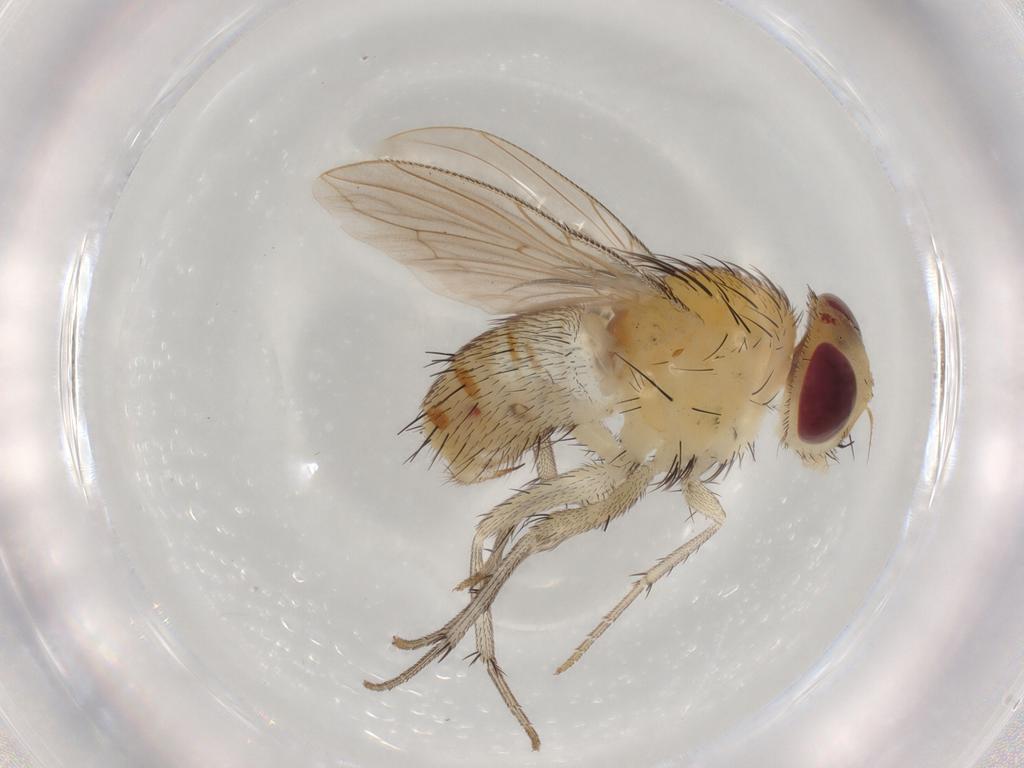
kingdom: Animalia
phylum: Arthropoda
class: Insecta
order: Diptera
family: Calliphoridae
